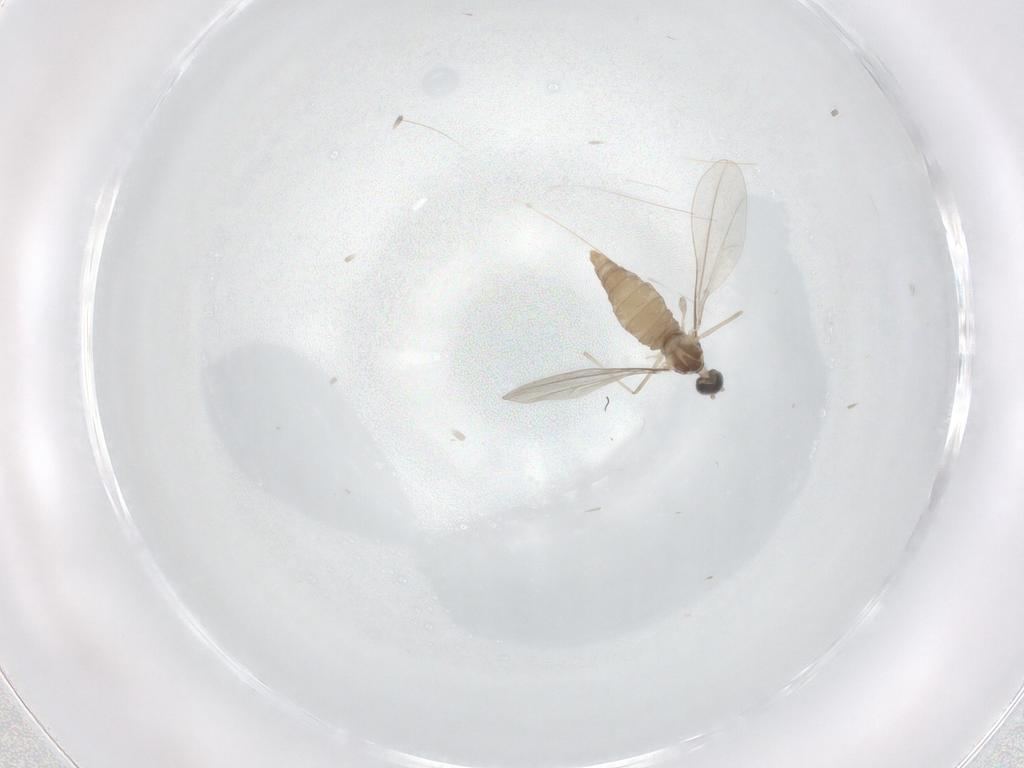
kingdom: Animalia
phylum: Arthropoda
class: Insecta
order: Diptera
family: Cecidomyiidae
